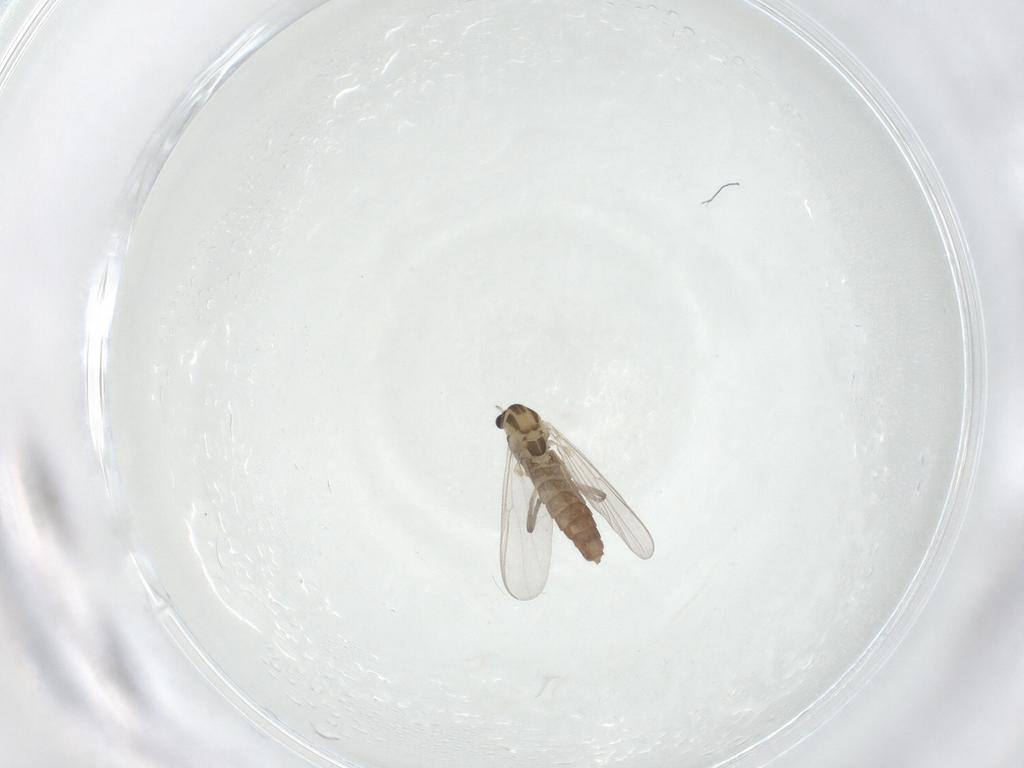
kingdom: Animalia
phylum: Arthropoda
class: Insecta
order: Diptera
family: Chironomidae
